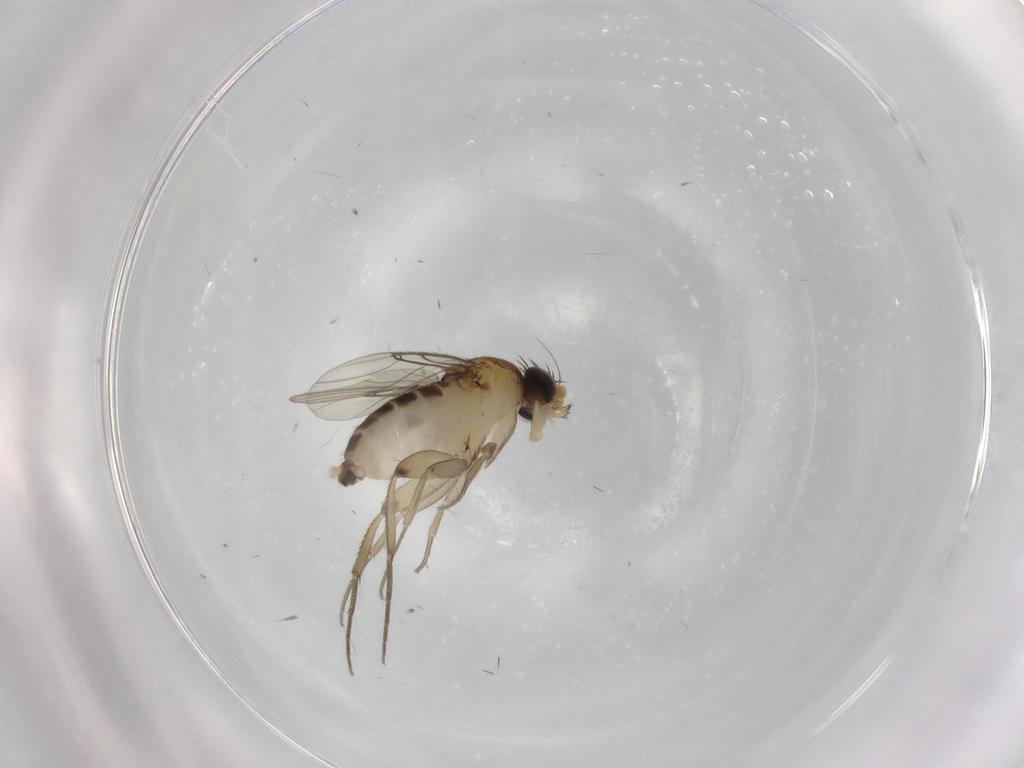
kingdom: Animalia
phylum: Arthropoda
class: Insecta
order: Diptera
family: Phoridae
